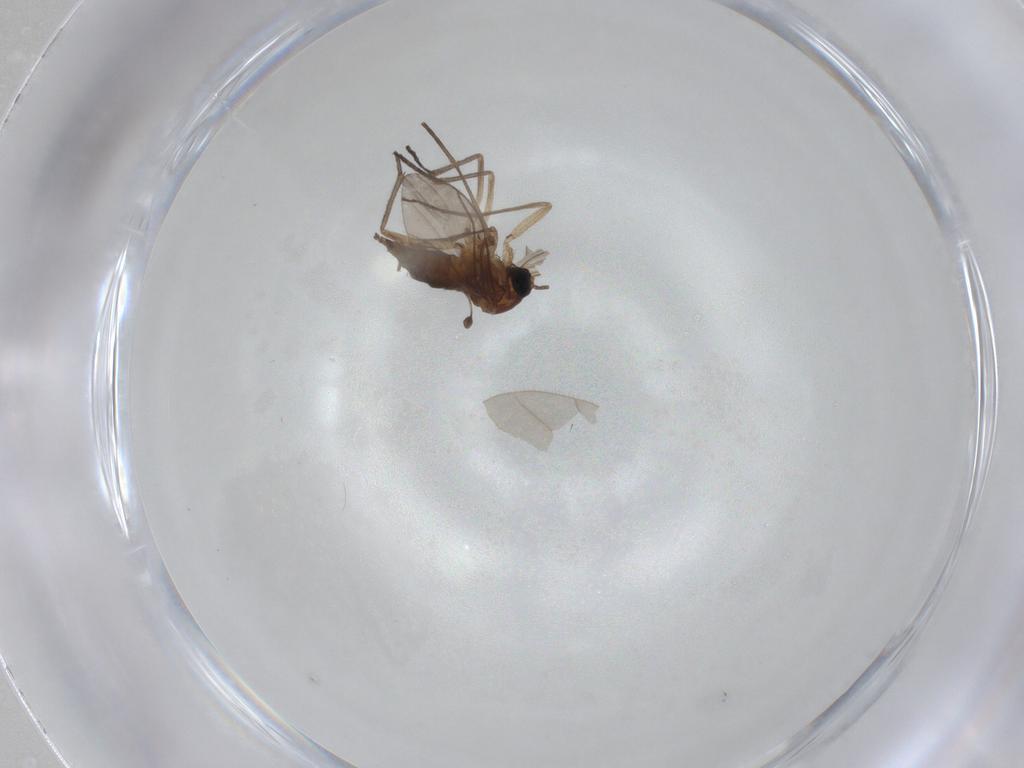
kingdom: Animalia
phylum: Arthropoda
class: Insecta
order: Diptera
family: Sciaridae
